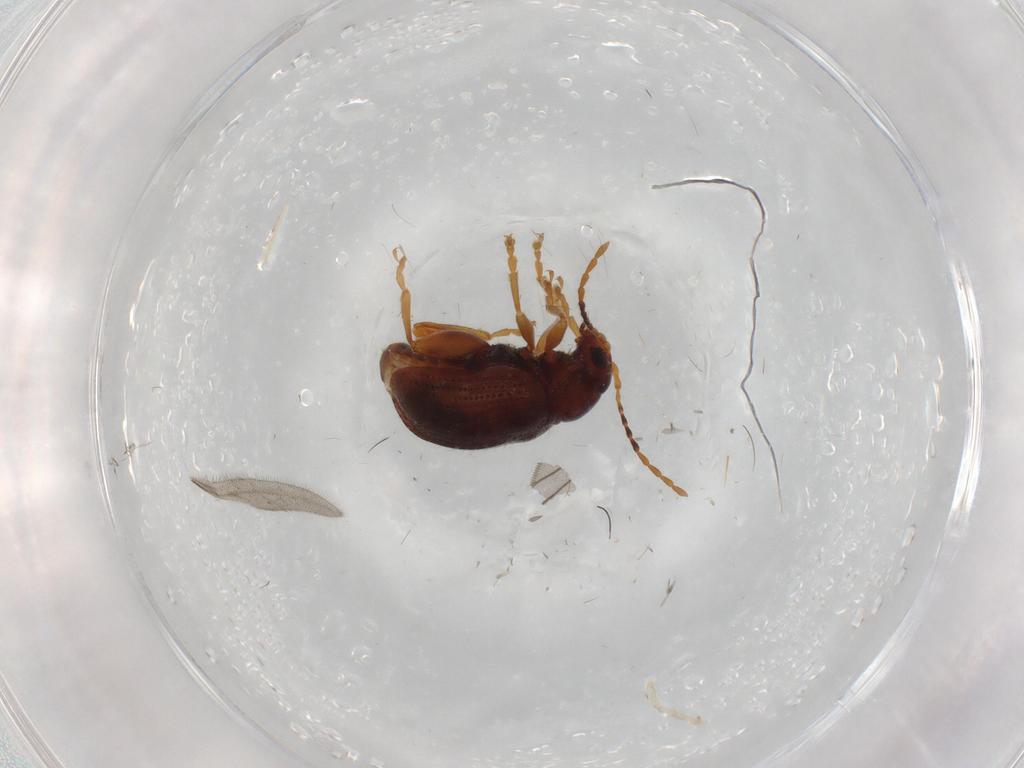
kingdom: Animalia
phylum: Arthropoda
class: Insecta
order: Coleoptera
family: Chrysomelidae
